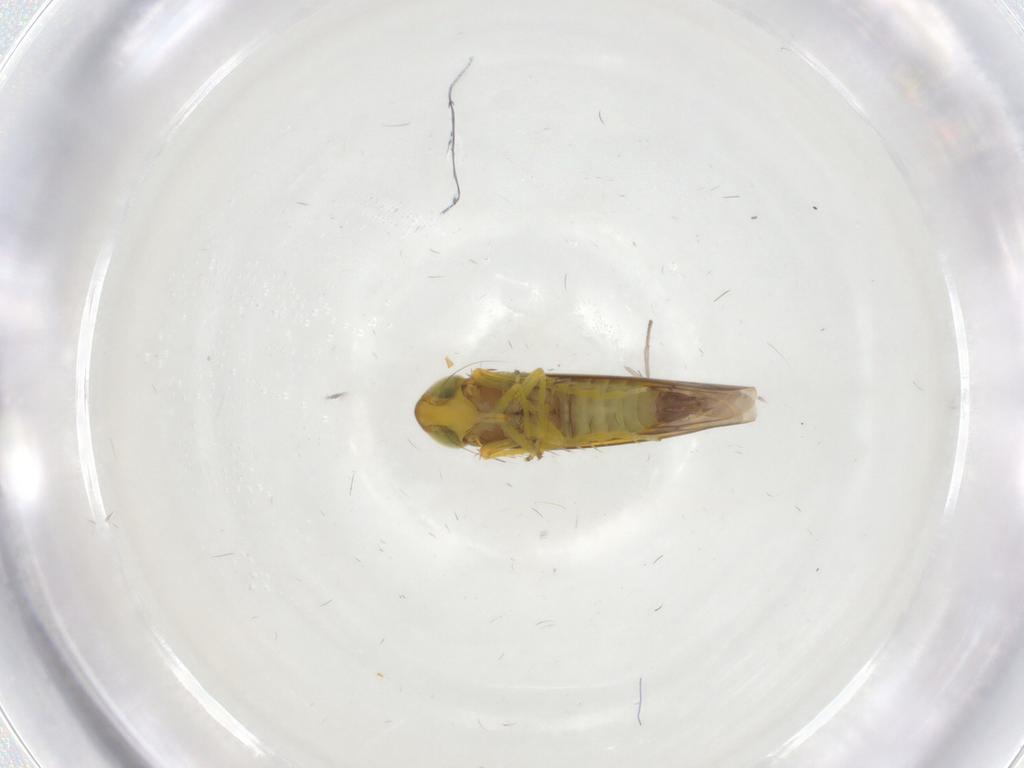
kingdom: Animalia
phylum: Arthropoda
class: Insecta
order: Hemiptera
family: Cicadellidae
